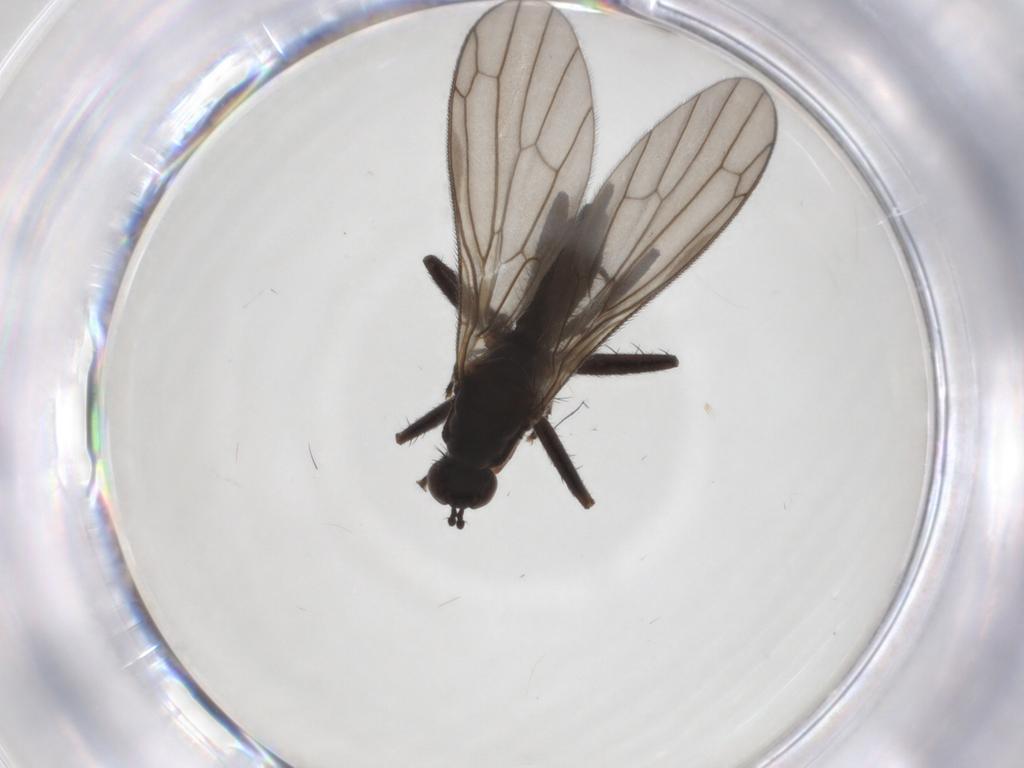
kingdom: Animalia
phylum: Arthropoda
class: Insecta
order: Diptera
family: Empididae
